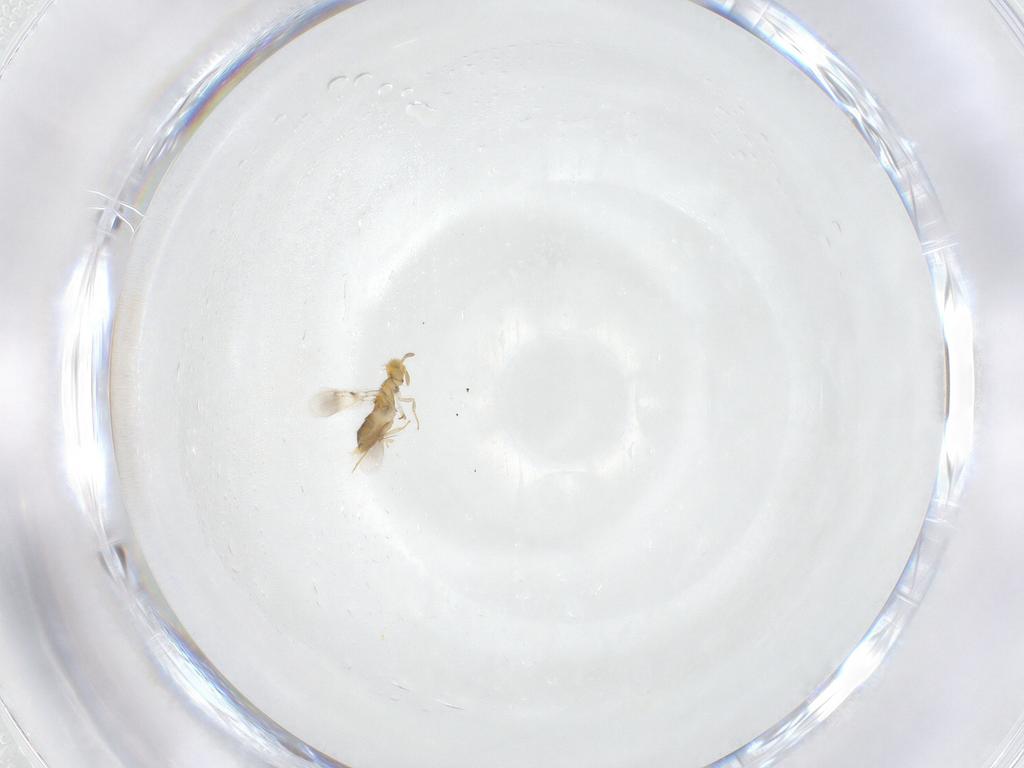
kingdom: Animalia
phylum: Arthropoda
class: Insecta
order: Hymenoptera
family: Aphelinidae
